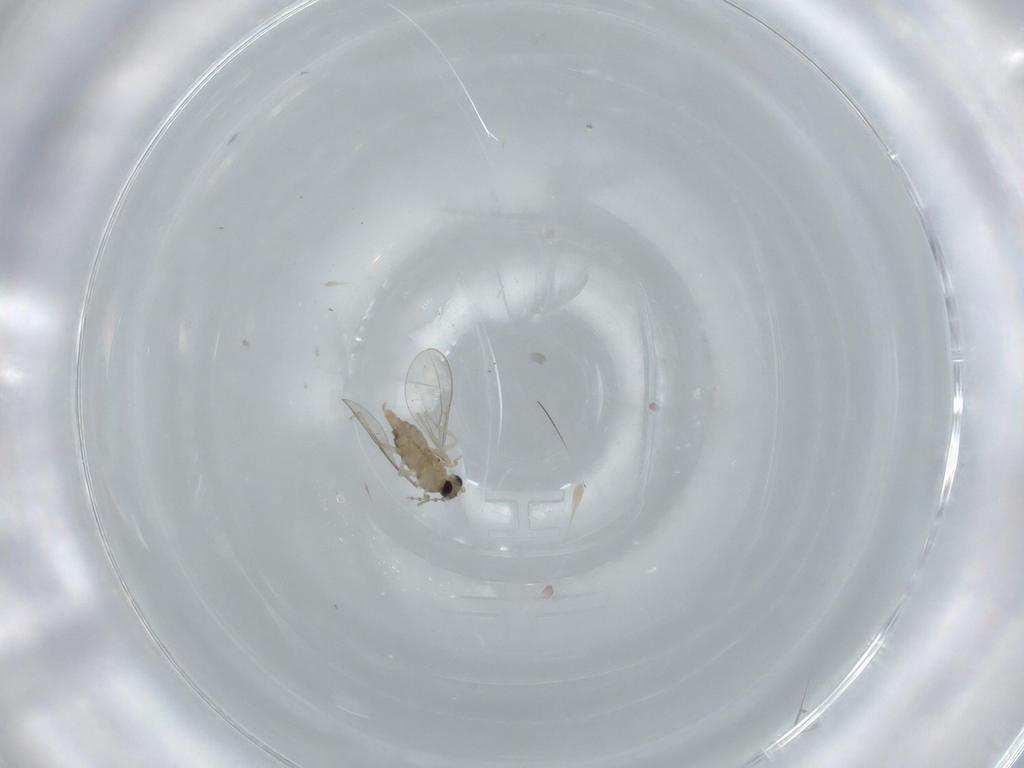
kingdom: Animalia
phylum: Arthropoda
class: Insecta
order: Diptera
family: Cecidomyiidae
